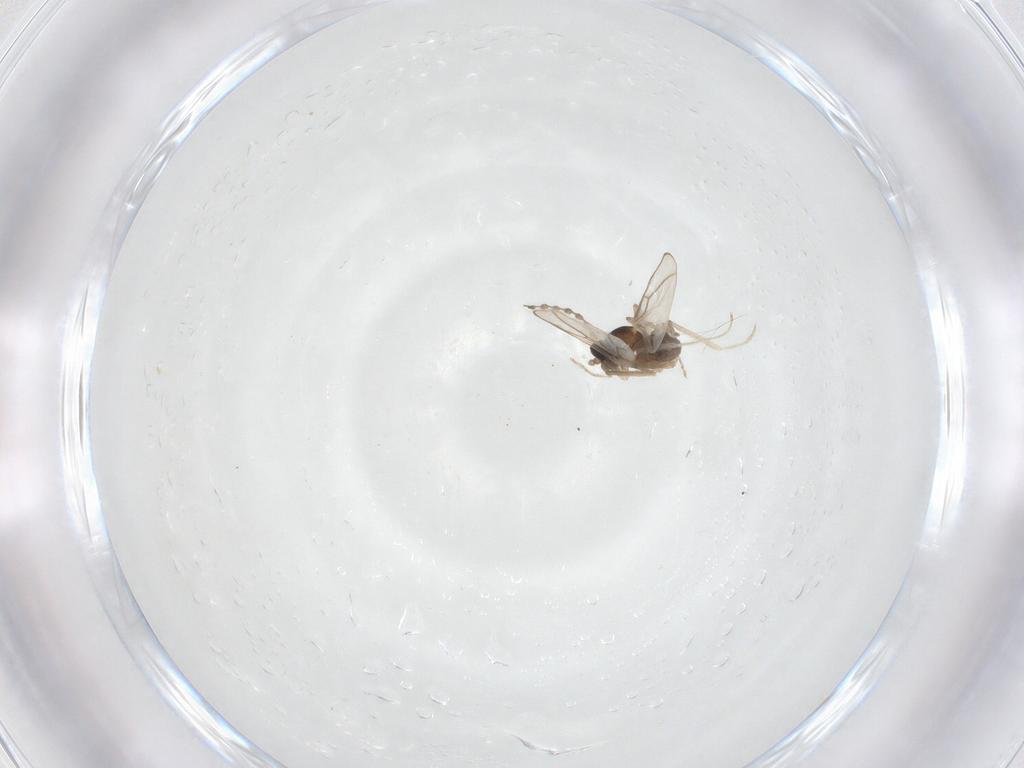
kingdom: Animalia
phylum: Arthropoda
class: Insecta
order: Diptera
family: Cecidomyiidae
